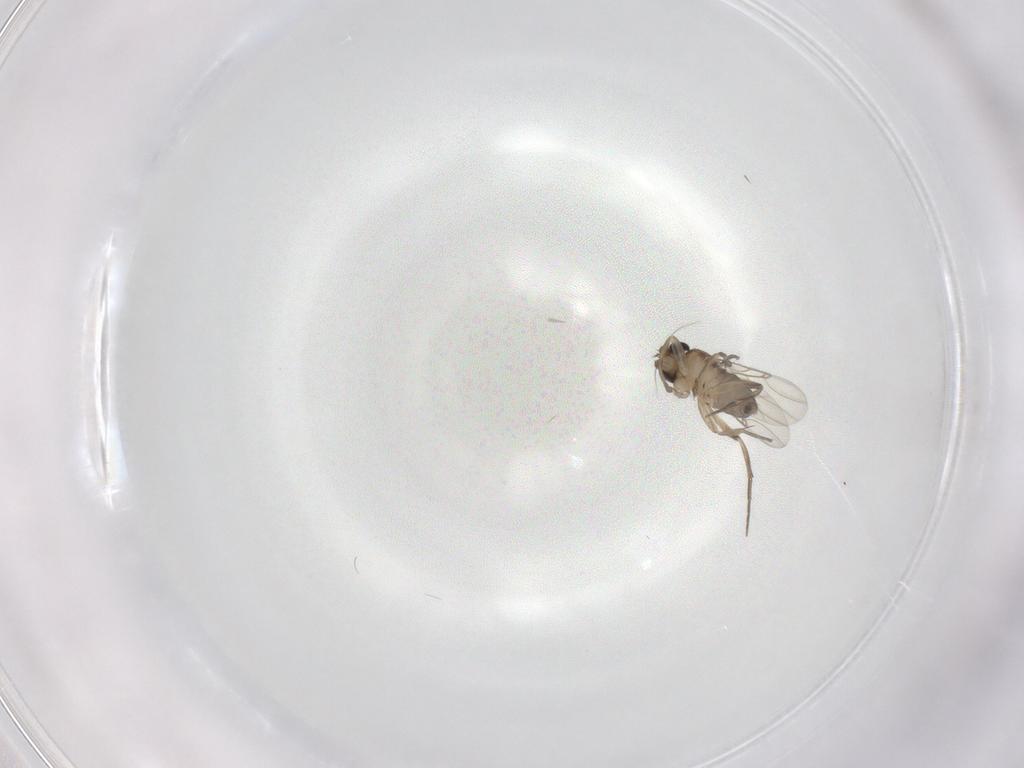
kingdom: Animalia
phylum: Arthropoda
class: Insecta
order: Diptera
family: Phoridae
